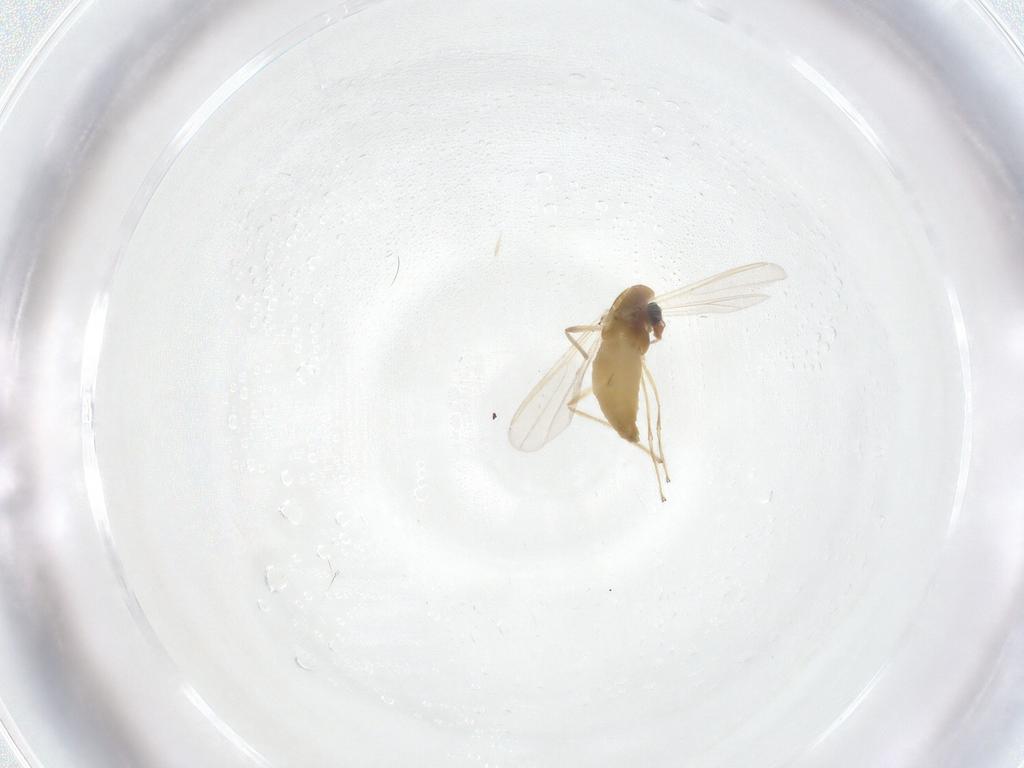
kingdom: Animalia
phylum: Arthropoda
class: Insecta
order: Diptera
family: Chironomidae
